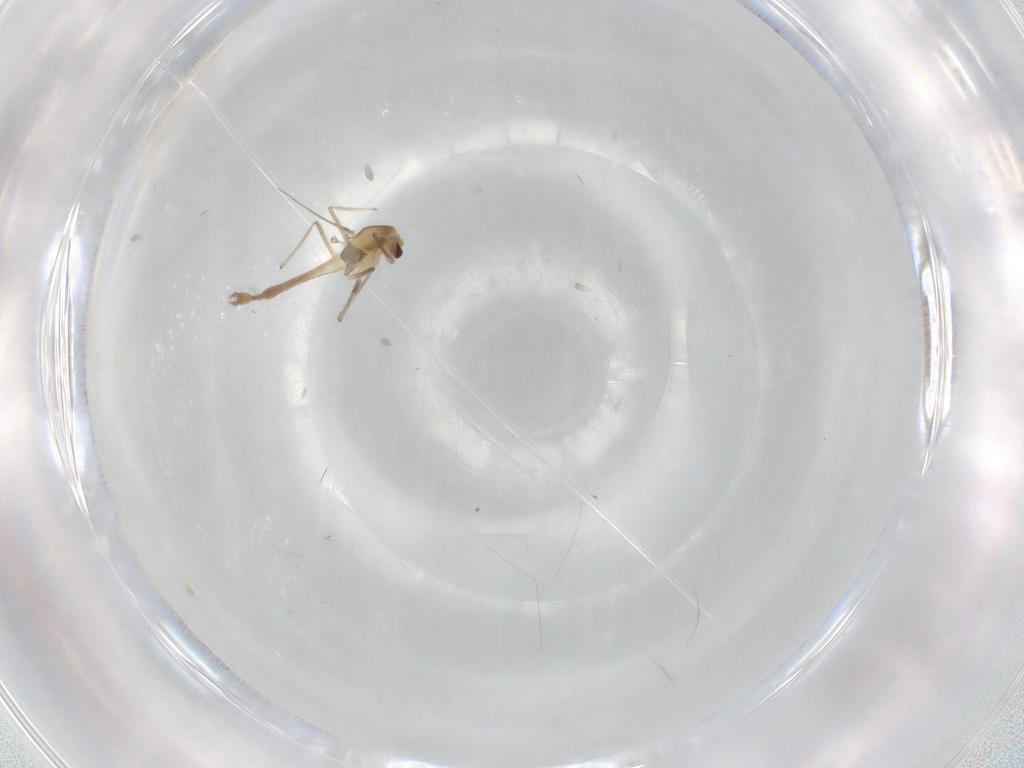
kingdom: Animalia
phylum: Arthropoda
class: Insecta
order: Diptera
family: Chironomidae
